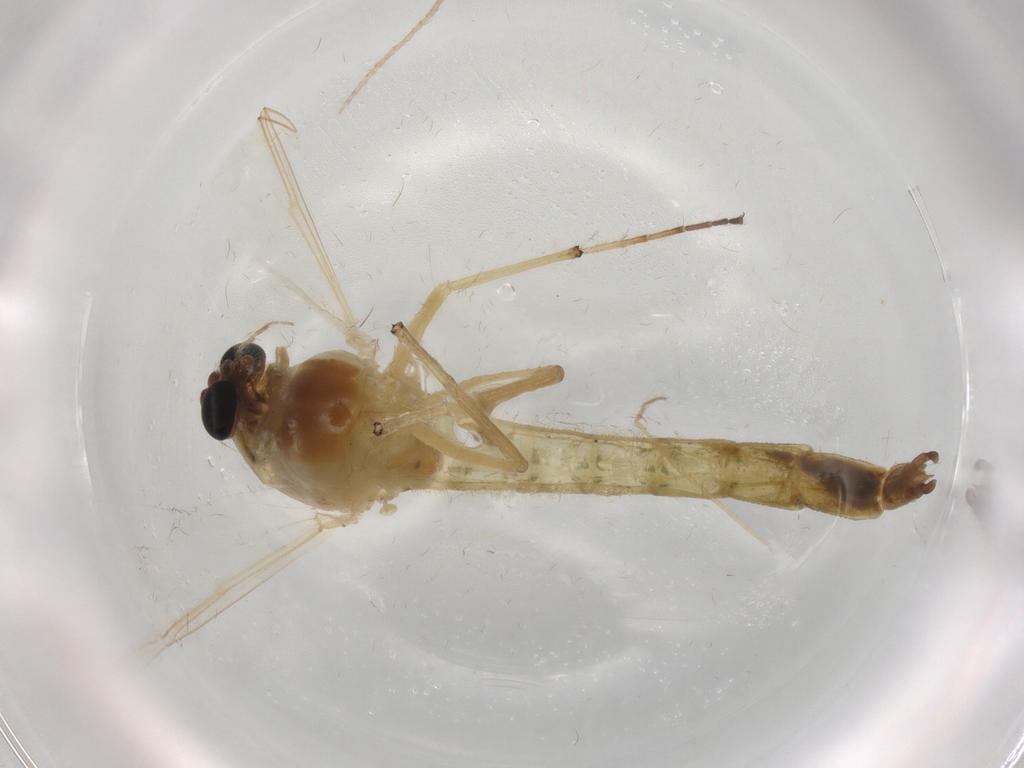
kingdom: Animalia
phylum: Arthropoda
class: Insecta
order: Diptera
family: Chironomidae
